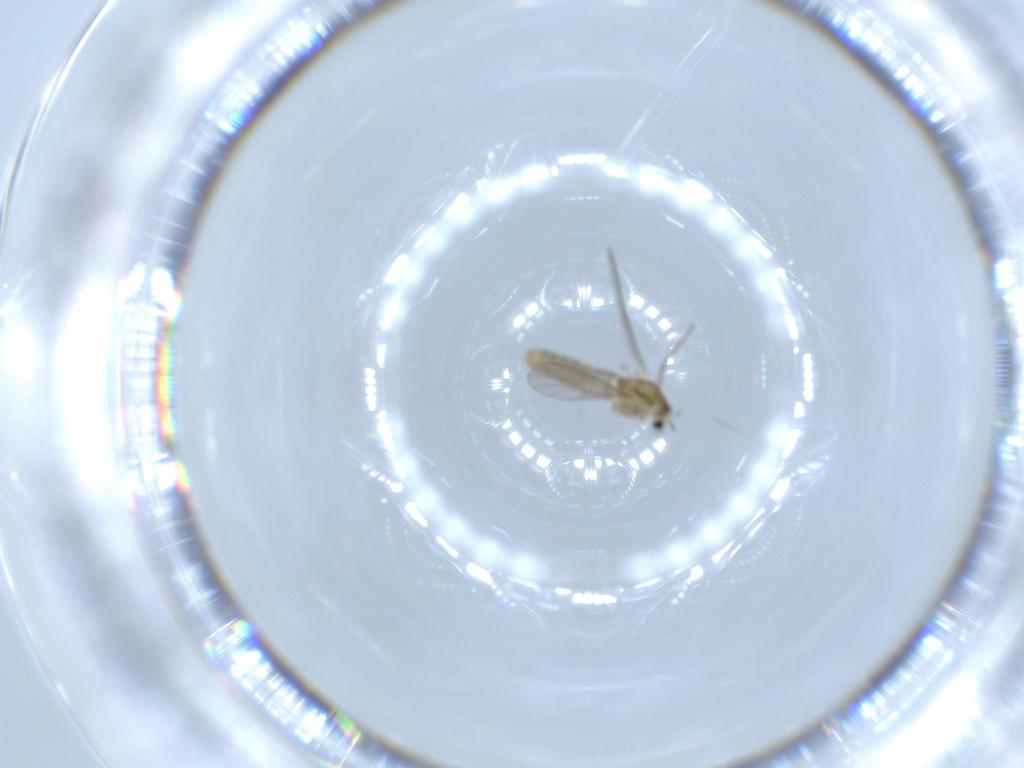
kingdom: Animalia
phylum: Arthropoda
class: Insecta
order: Diptera
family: Chironomidae
